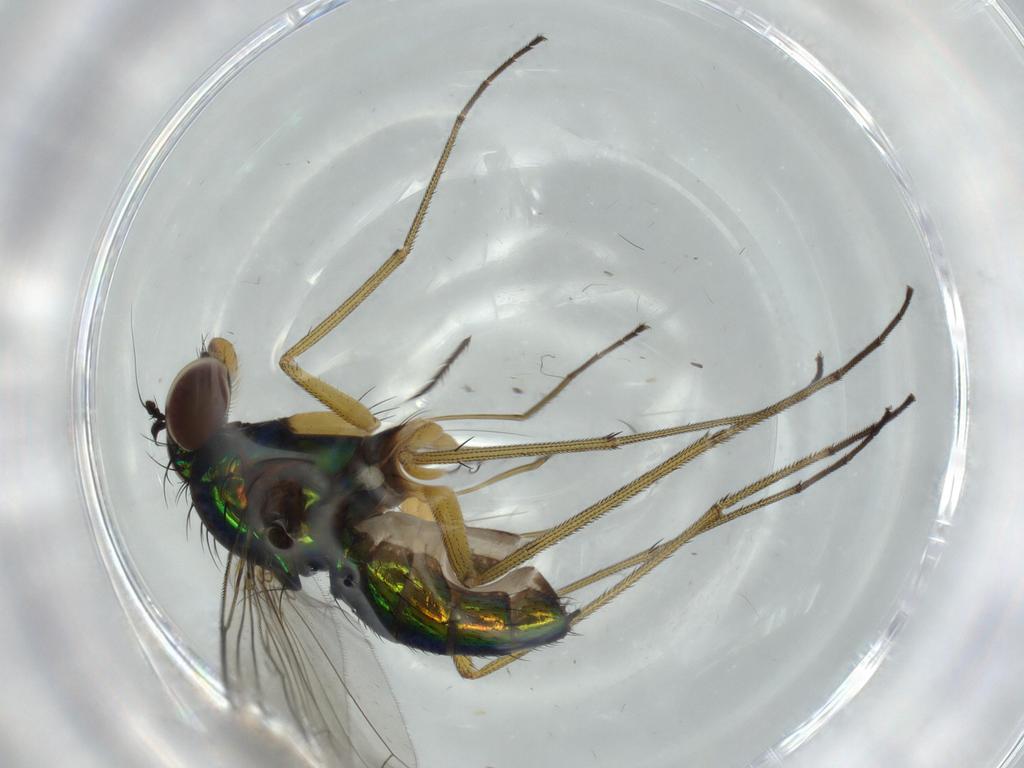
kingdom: Animalia
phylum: Arthropoda
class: Insecta
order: Diptera
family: Dolichopodidae
